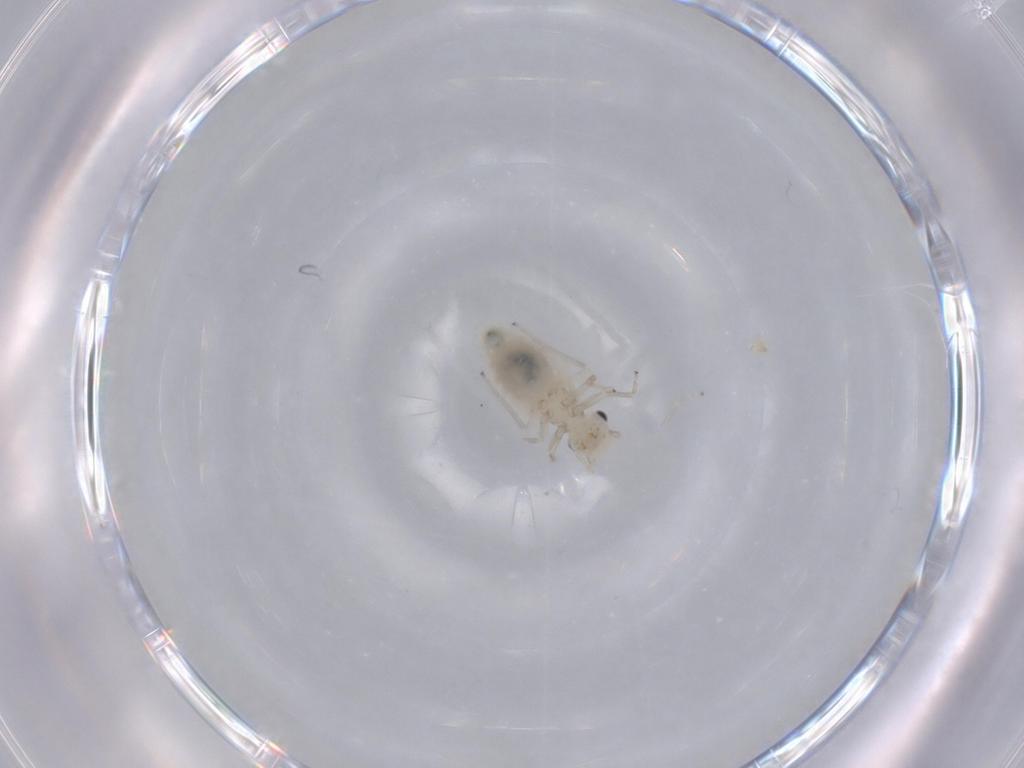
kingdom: Animalia
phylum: Arthropoda
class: Insecta
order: Psocodea
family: Caeciliusidae
